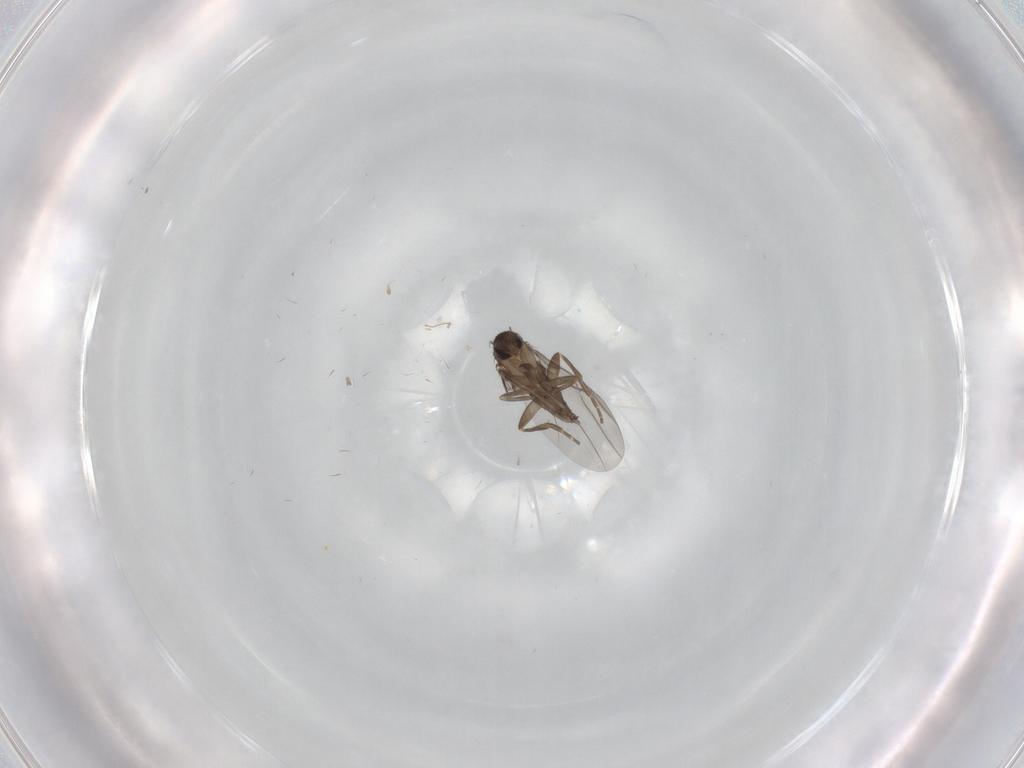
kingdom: Animalia
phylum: Arthropoda
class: Insecta
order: Diptera
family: Phoridae
